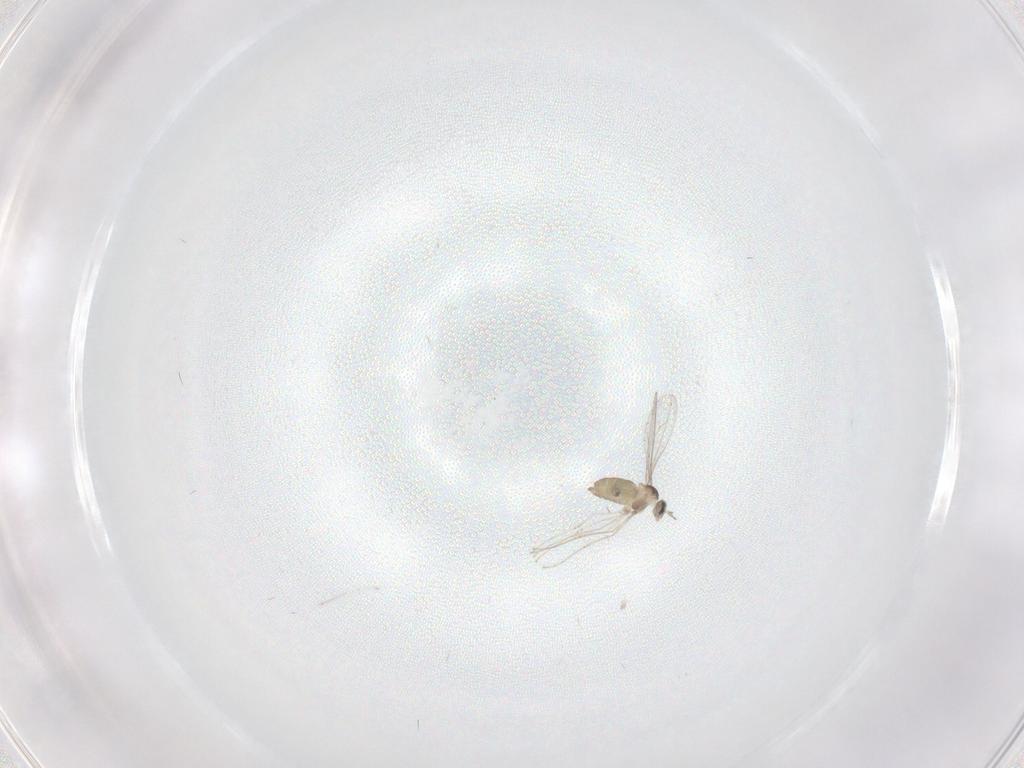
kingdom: Animalia
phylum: Arthropoda
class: Insecta
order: Diptera
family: Cecidomyiidae
